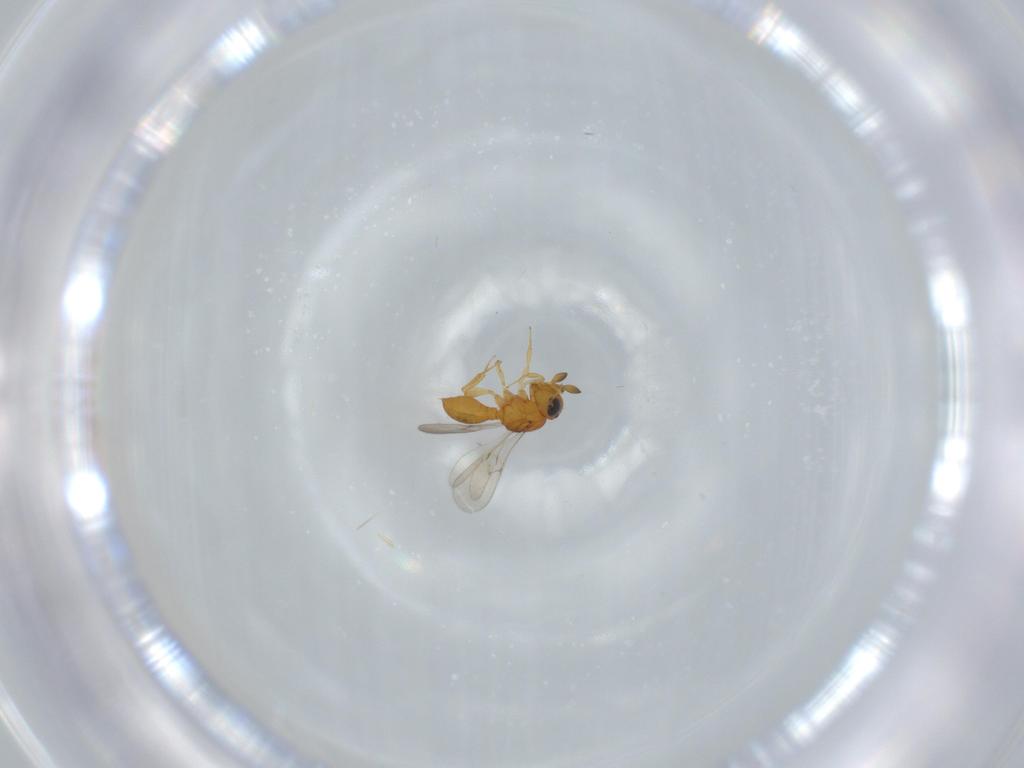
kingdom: Animalia
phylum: Arthropoda
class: Insecta
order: Hymenoptera
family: Scelionidae
